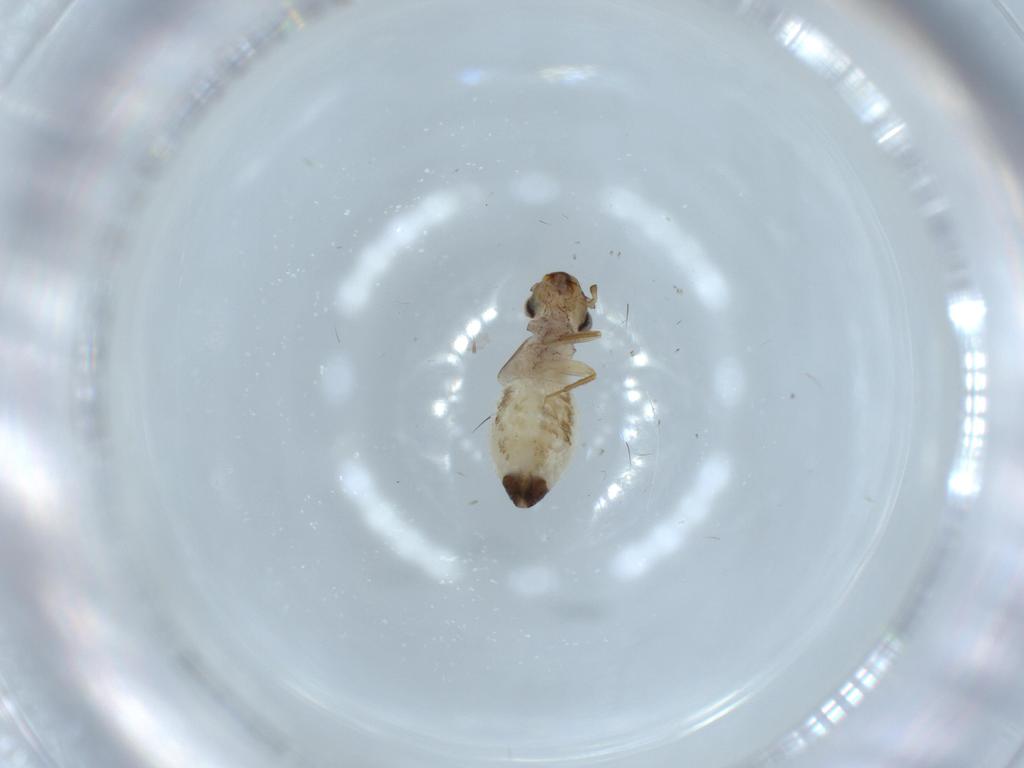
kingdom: Animalia
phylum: Arthropoda
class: Insecta
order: Psocodea
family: Lepidopsocidae
